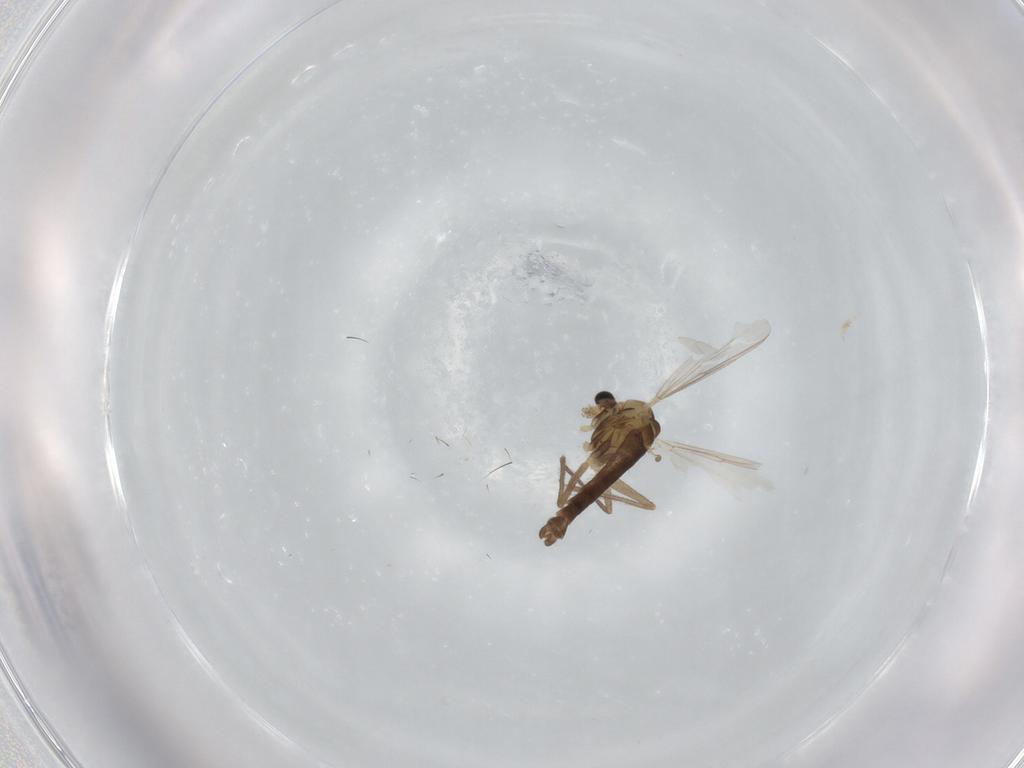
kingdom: Animalia
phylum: Arthropoda
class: Insecta
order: Diptera
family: Chironomidae
